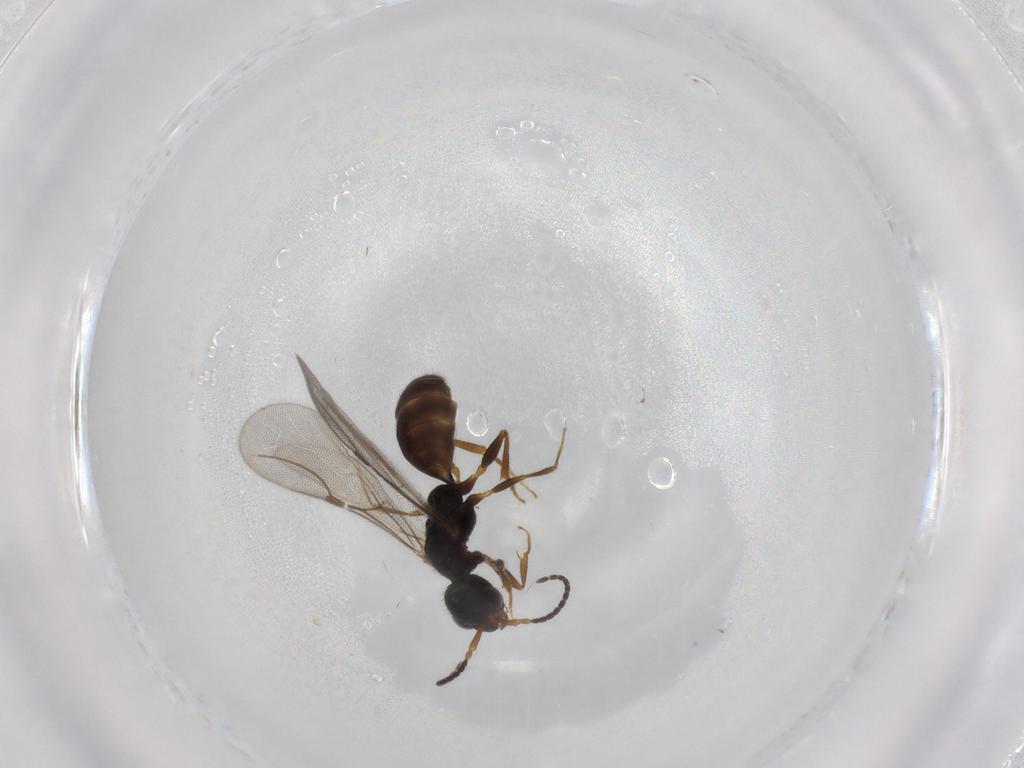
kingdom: Animalia
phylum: Arthropoda
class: Insecta
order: Hymenoptera
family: Bethylidae
